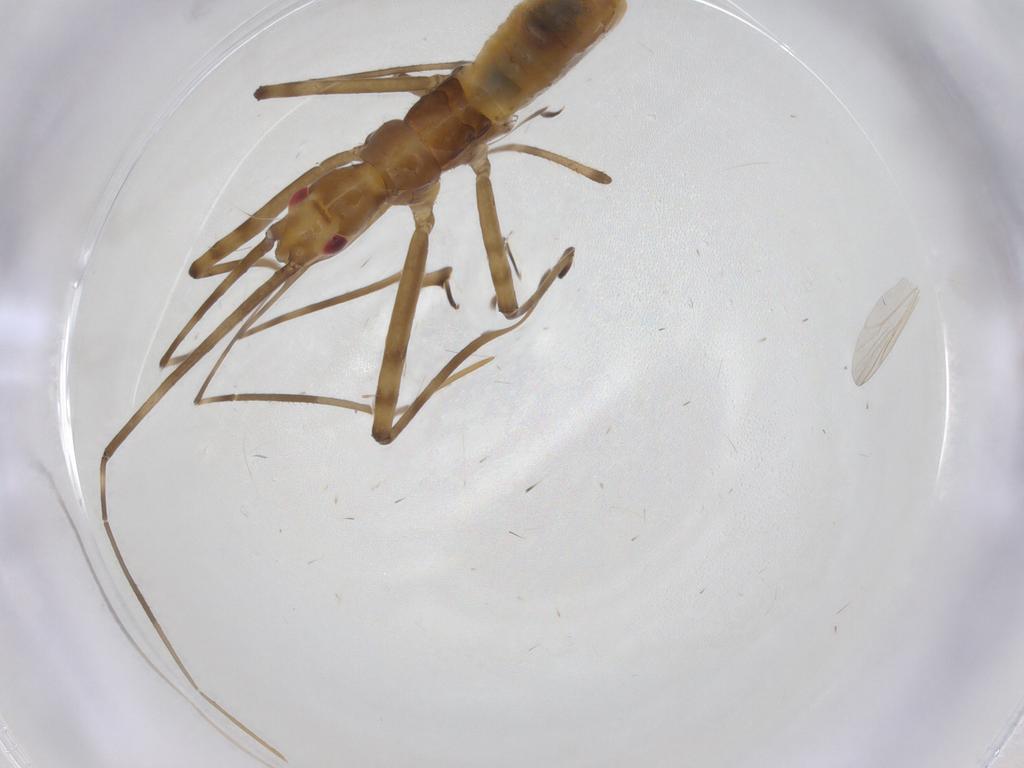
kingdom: Animalia
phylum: Arthropoda
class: Insecta
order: Hemiptera
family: Reduviidae
